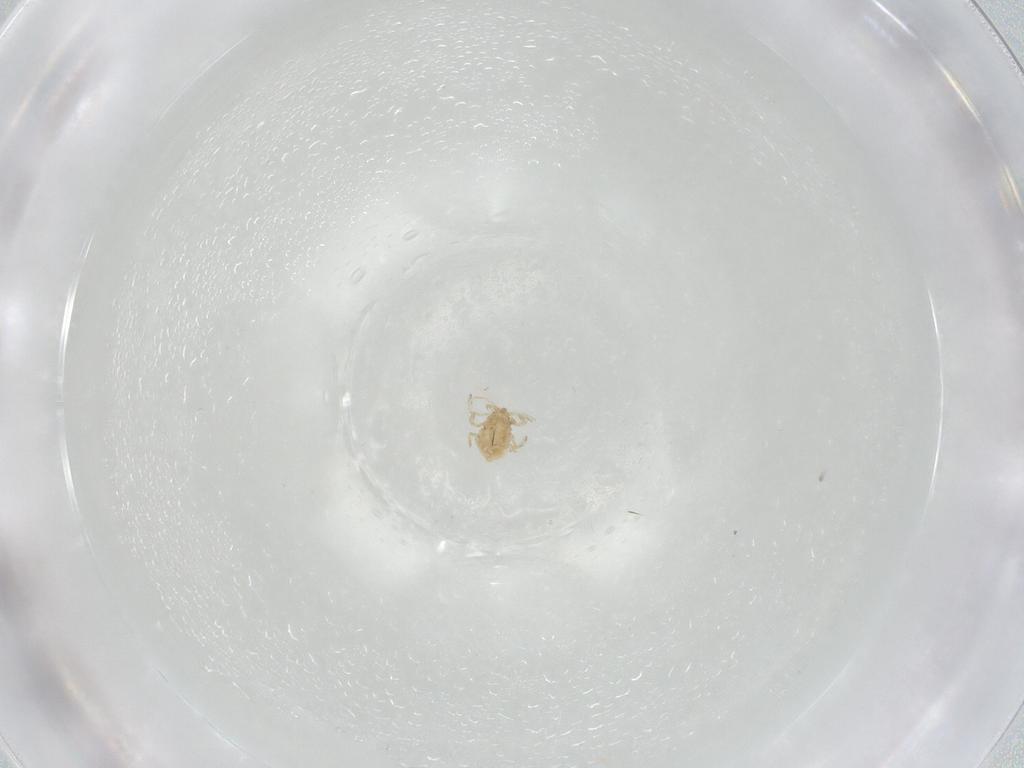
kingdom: Animalia
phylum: Arthropoda
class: Insecta
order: Neuroptera
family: Coniopterygidae
